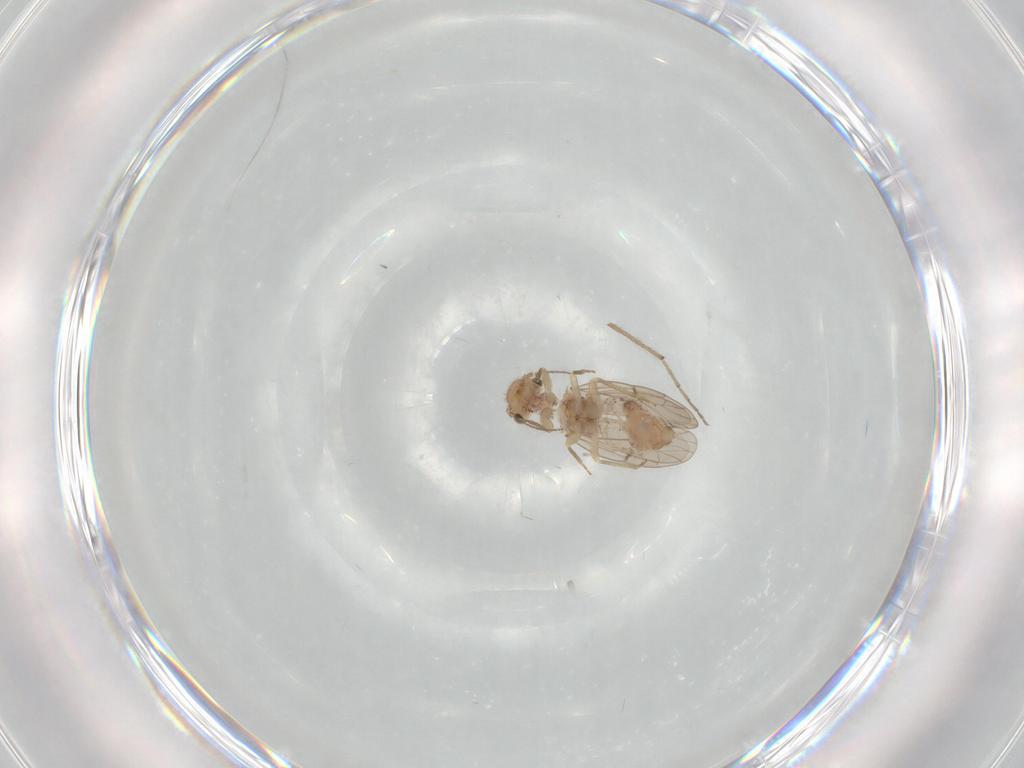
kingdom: Animalia
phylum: Arthropoda
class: Insecta
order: Psocodea
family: Ectopsocidae
